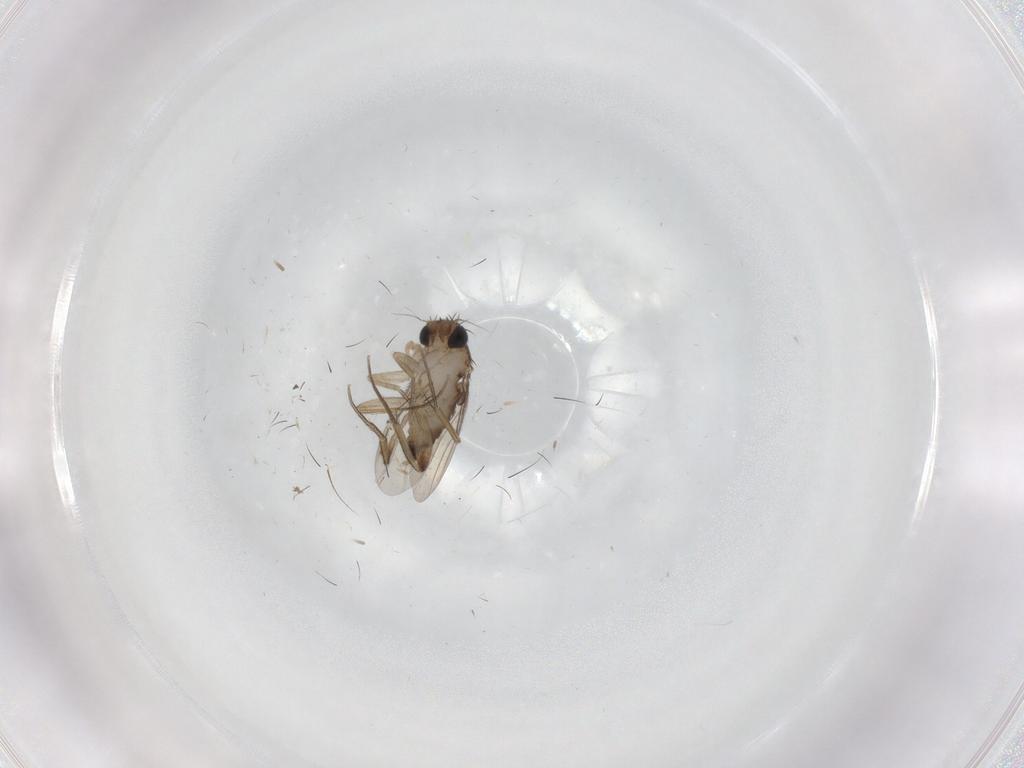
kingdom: Animalia
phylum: Arthropoda
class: Insecta
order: Diptera
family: Phoridae
